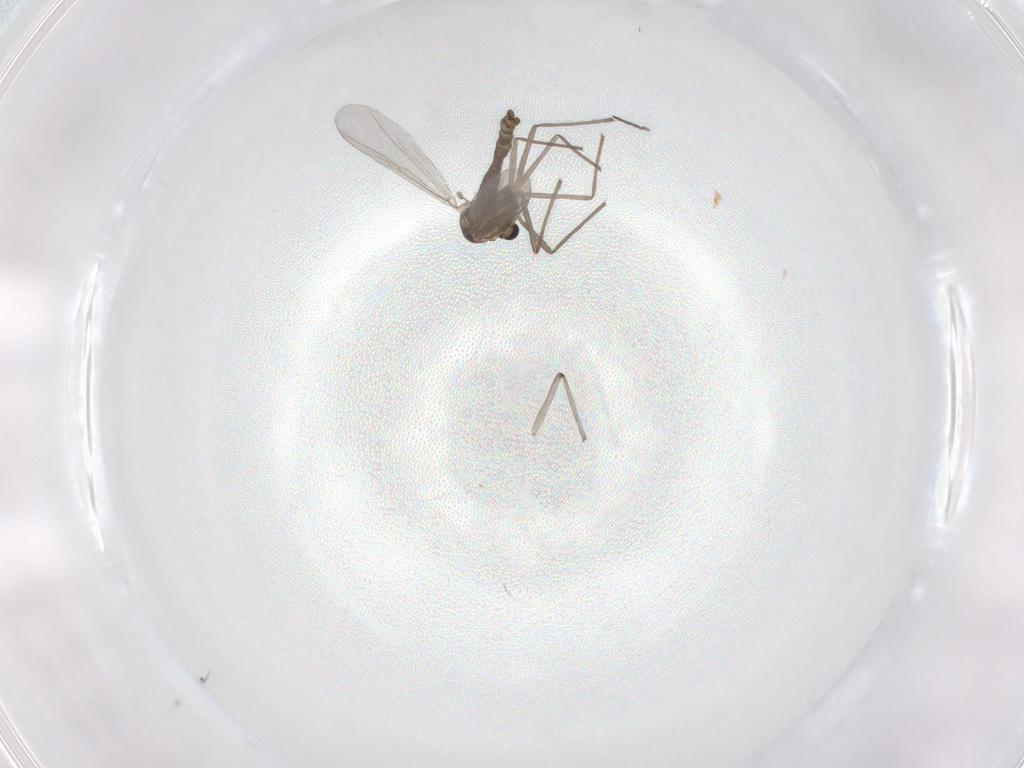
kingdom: Animalia
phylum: Arthropoda
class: Insecta
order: Diptera
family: Chironomidae
